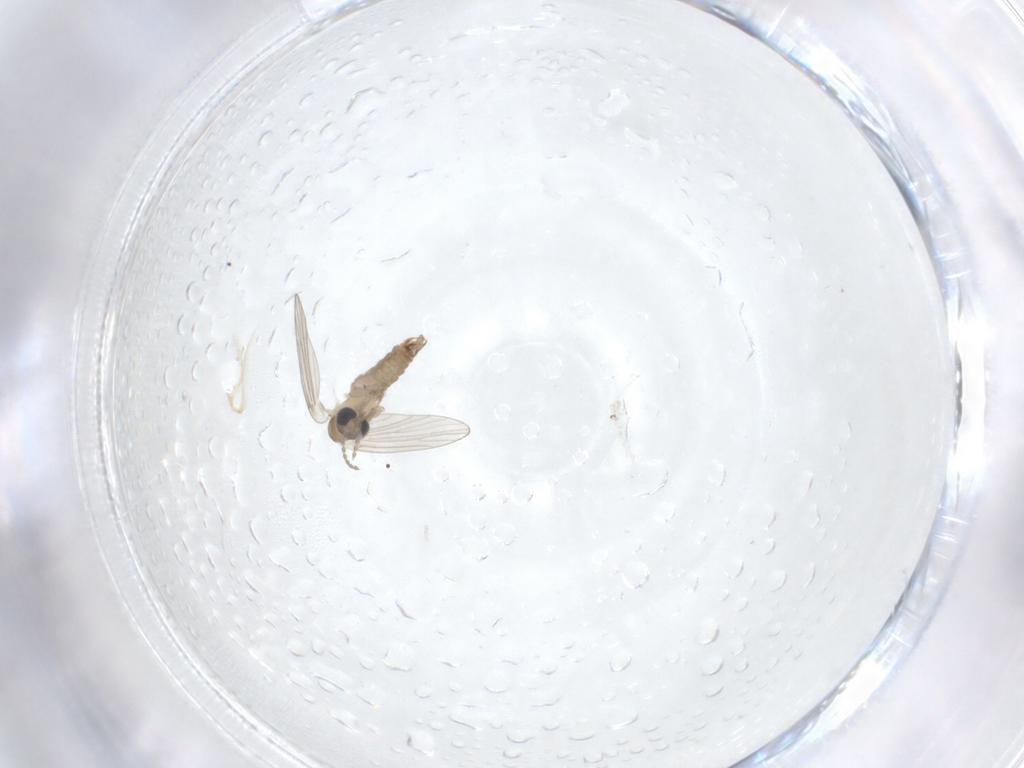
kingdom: Animalia
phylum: Arthropoda
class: Insecta
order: Diptera
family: Psychodidae
